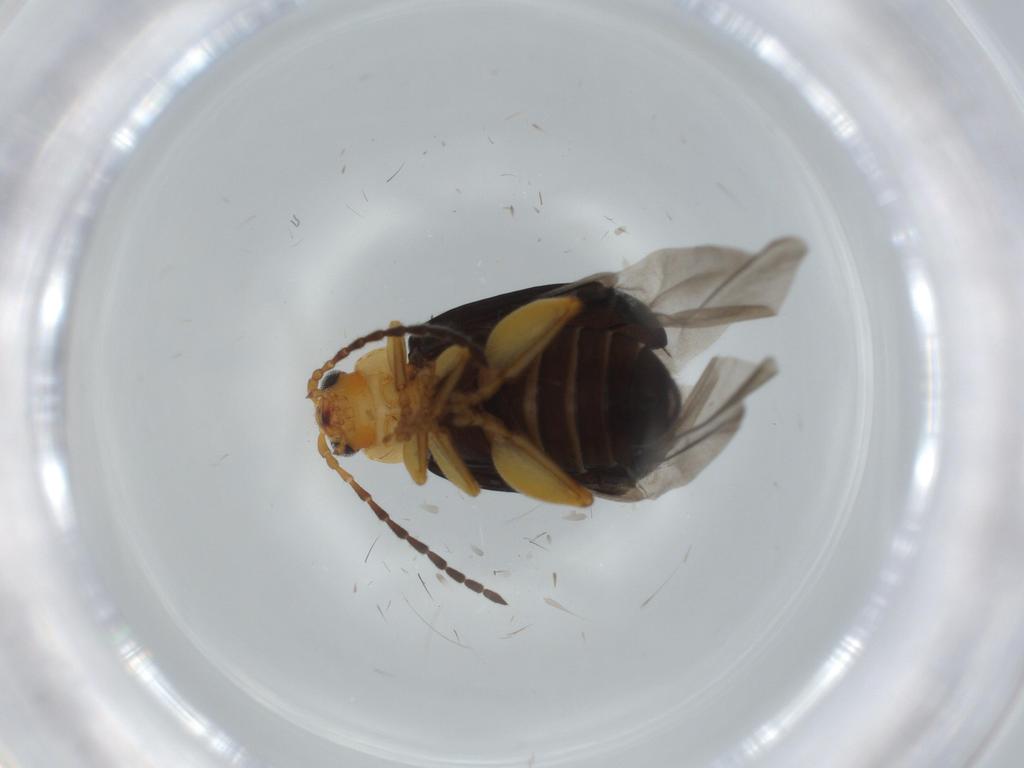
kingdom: Animalia
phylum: Arthropoda
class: Insecta
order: Coleoptera
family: Chrysomelidae
